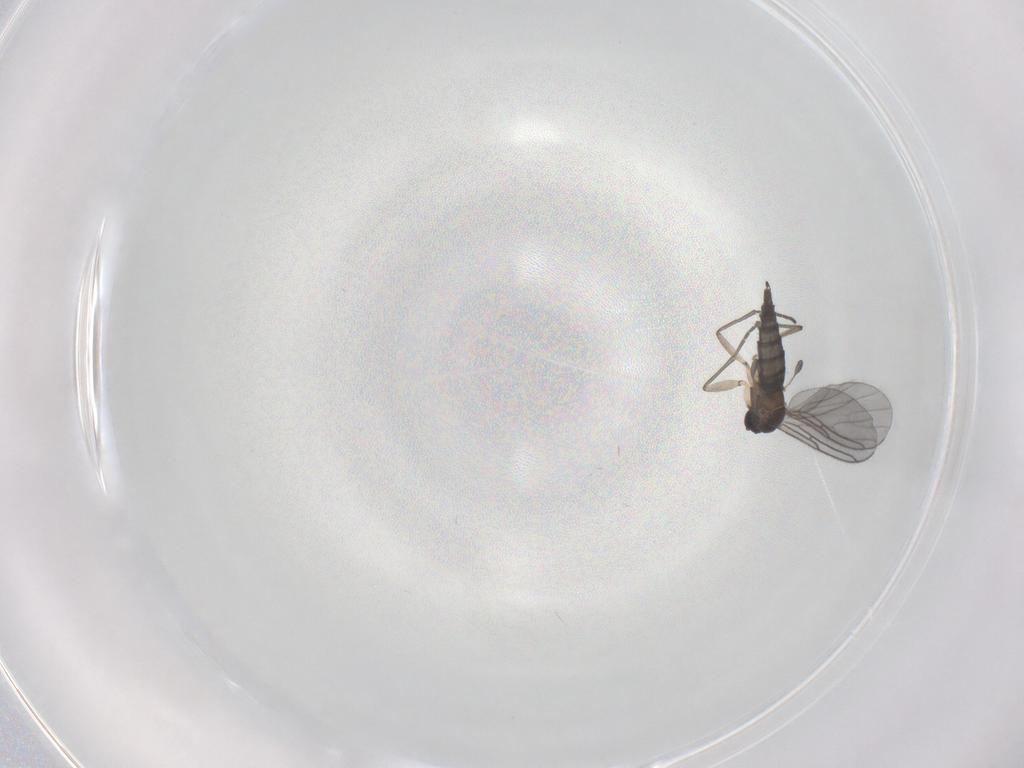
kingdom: Animalia
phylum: Arthropoda
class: Insecta
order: Diptera
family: Sciaridae
